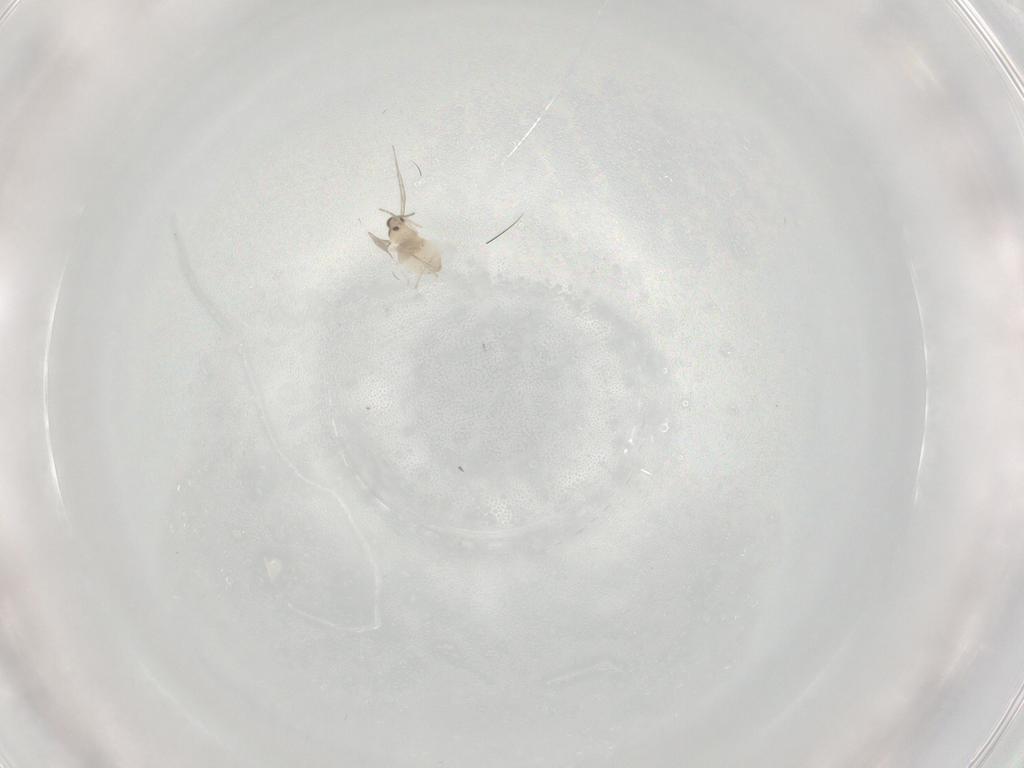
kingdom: Animalia
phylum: Arthropoda
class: Insecta
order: Diptera
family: Cecidomyiidae
